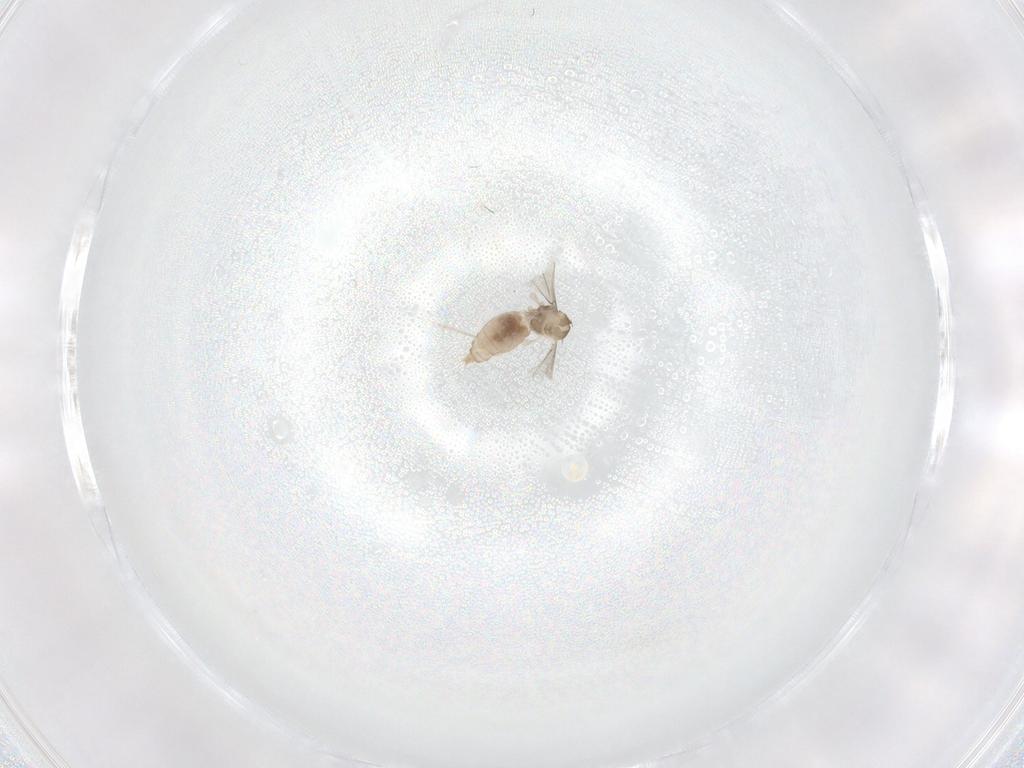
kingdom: Animalia
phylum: Arthropoda
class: Insecta
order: Diptera
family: Cecidomyiidae
